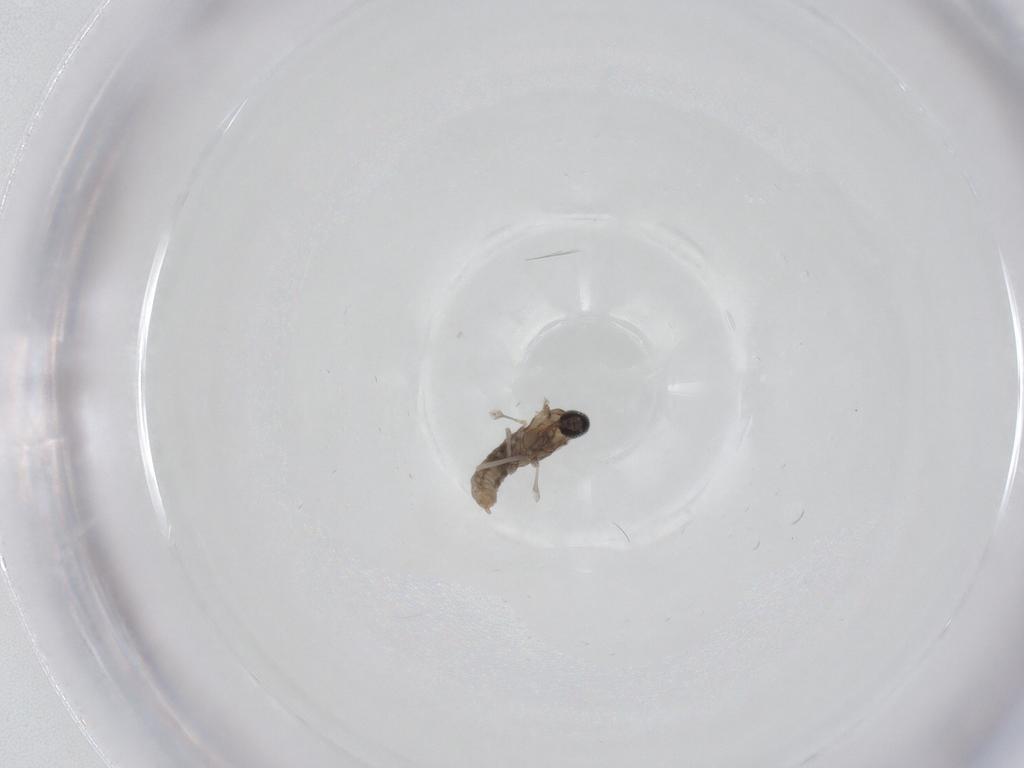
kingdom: Animalia
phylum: Arthropoda
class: Insecta
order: Diptera
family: Cecidomyiidae
